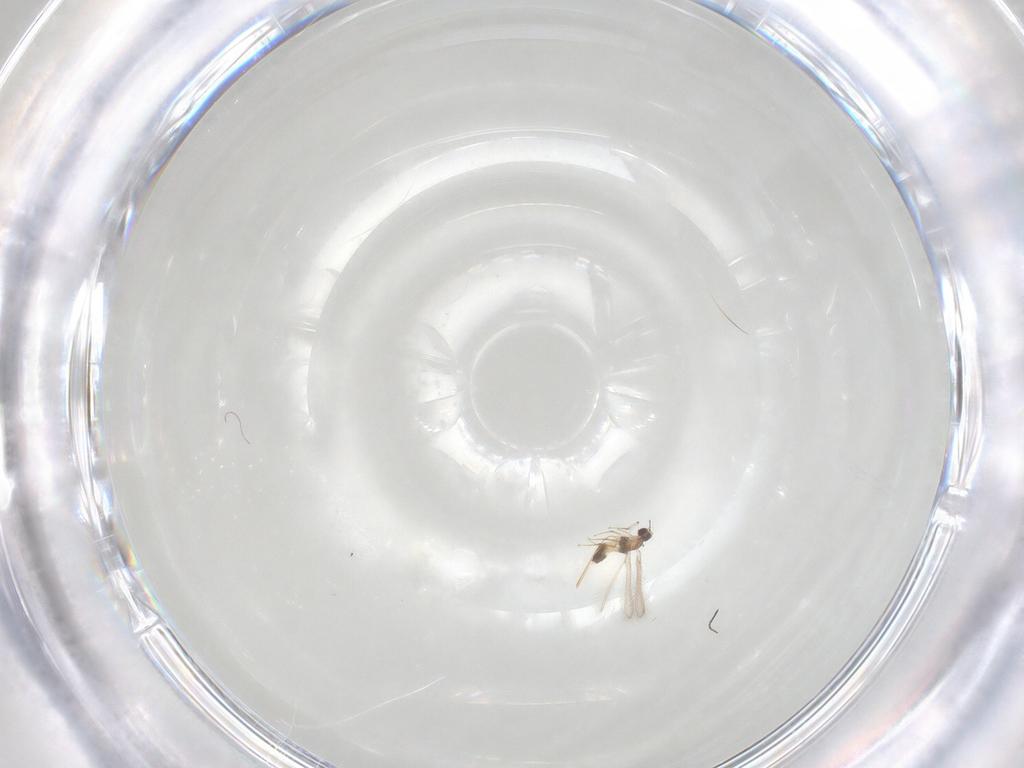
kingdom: Animalia
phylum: Arthropoda
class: Insecta
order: Hymenoptera
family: Mymaridae
